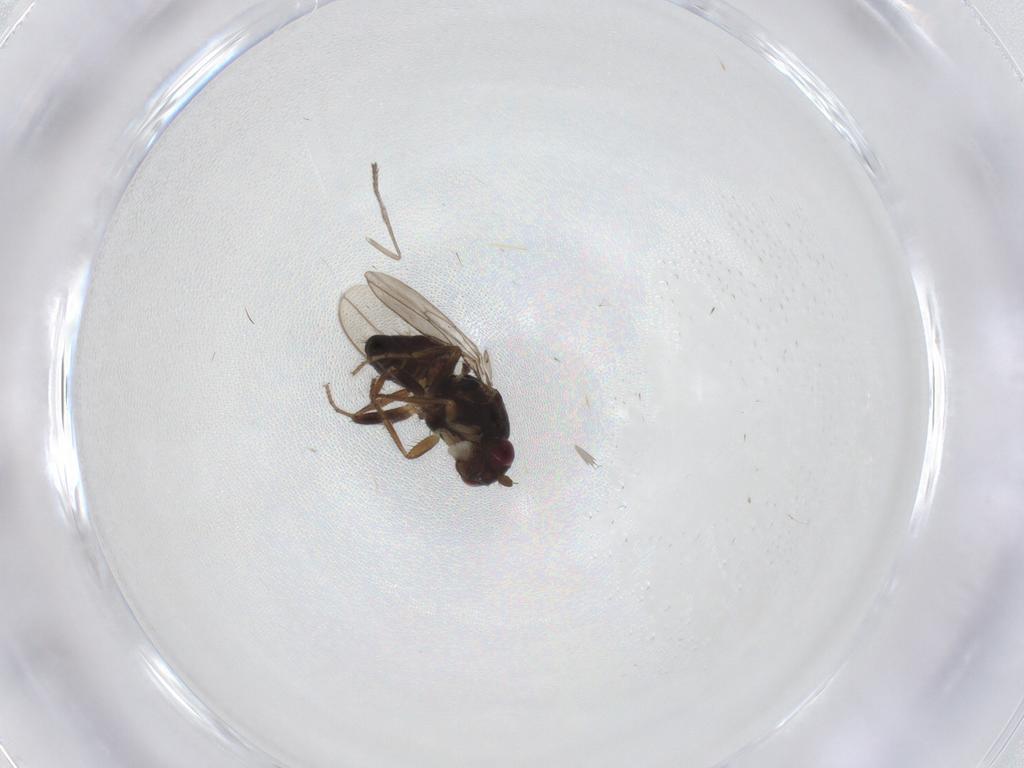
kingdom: Animalia
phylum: Arthropoda
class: Insecta
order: Diptera
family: Sphaeroceridae
